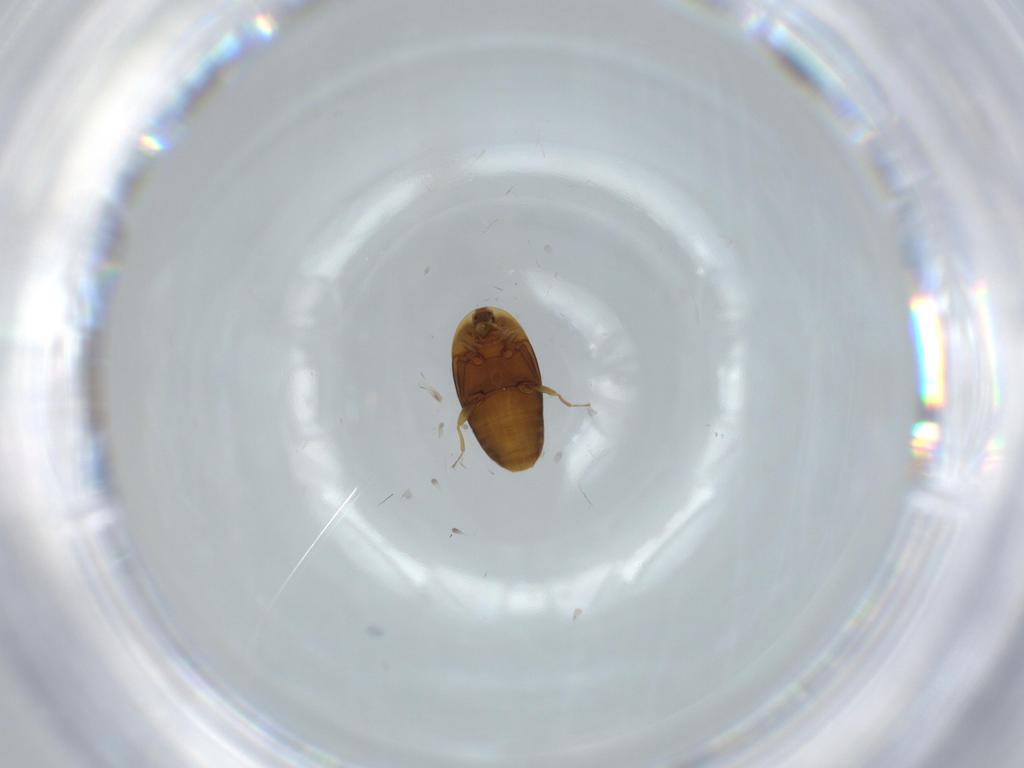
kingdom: Animalia
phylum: Arthropoda
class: Insecta
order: Coleoptera
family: Corylophidae
